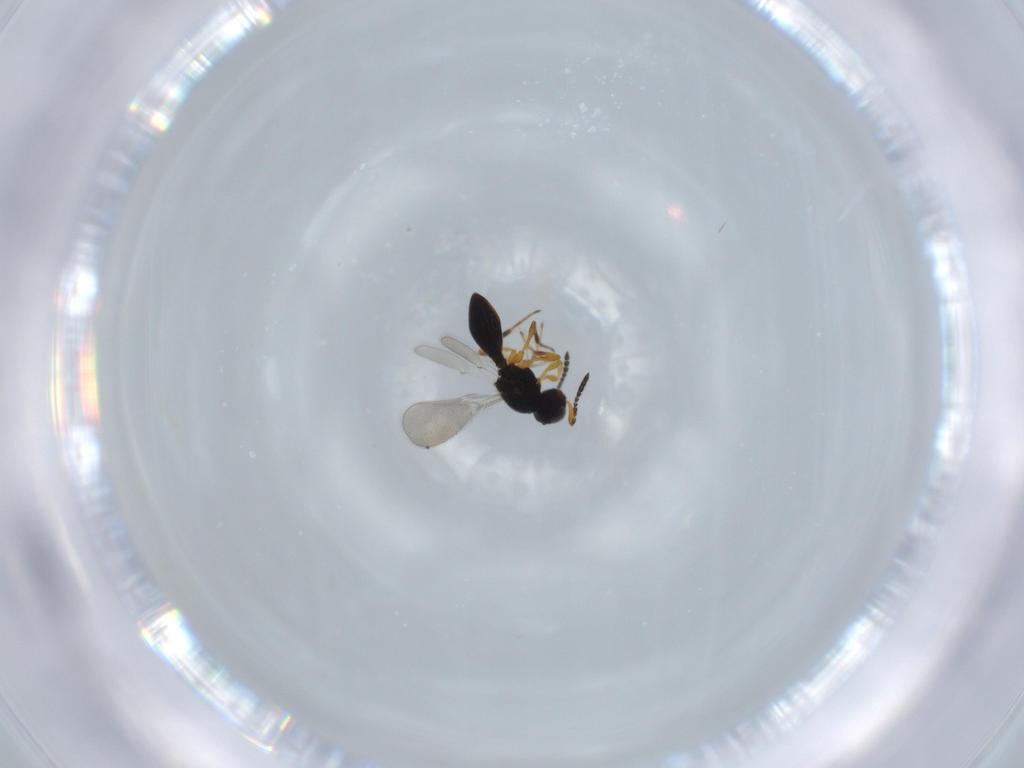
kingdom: Animalia
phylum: Arthropoda
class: Insecta
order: Hymenoptera
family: Platygastridae
